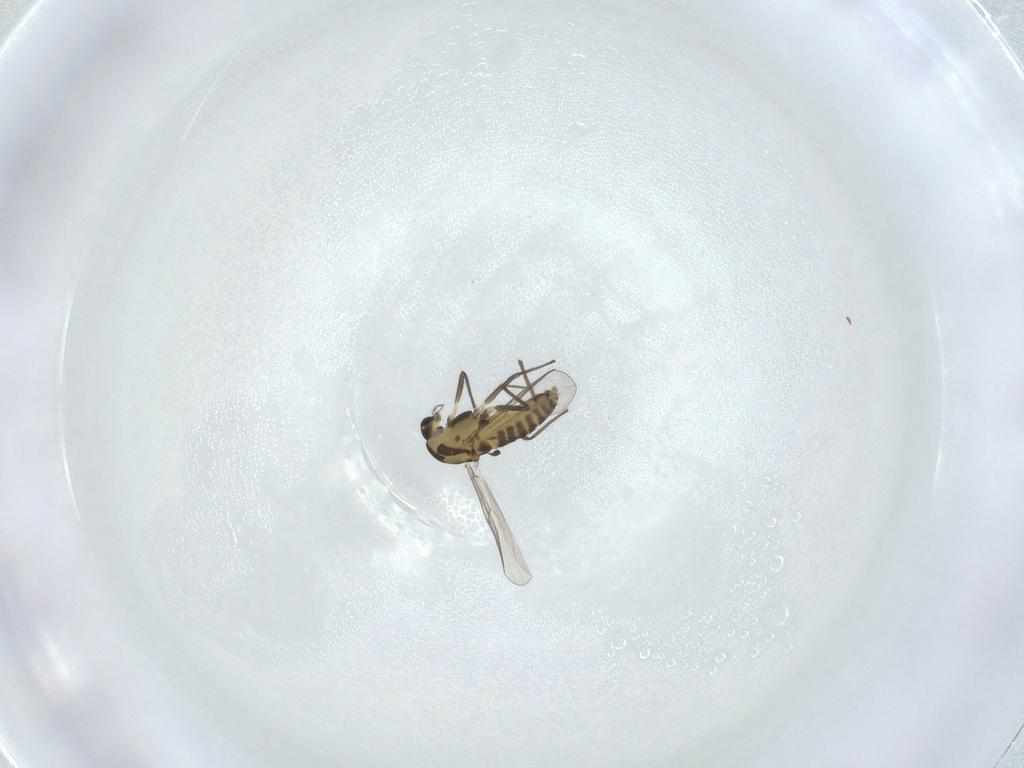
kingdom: Animalia
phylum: Arthropoda
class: Insecta
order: Diptera
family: Chironomidae
